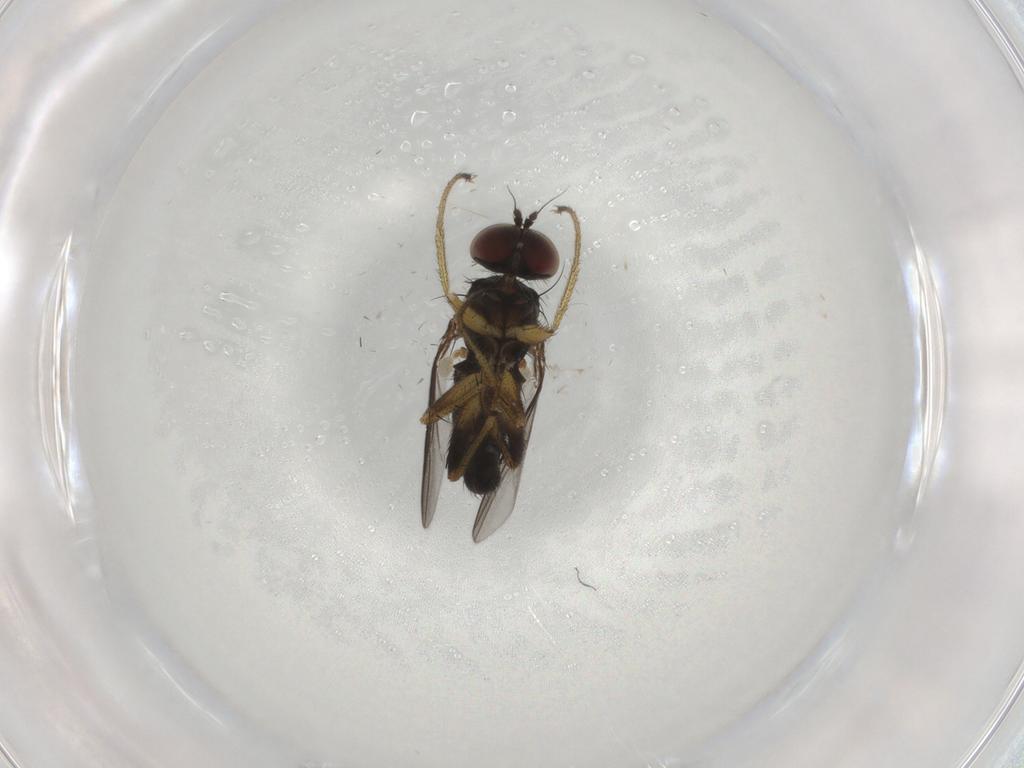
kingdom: Animalia
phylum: Arthropoda
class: Insecta
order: Diptera
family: Dolichopodidae
